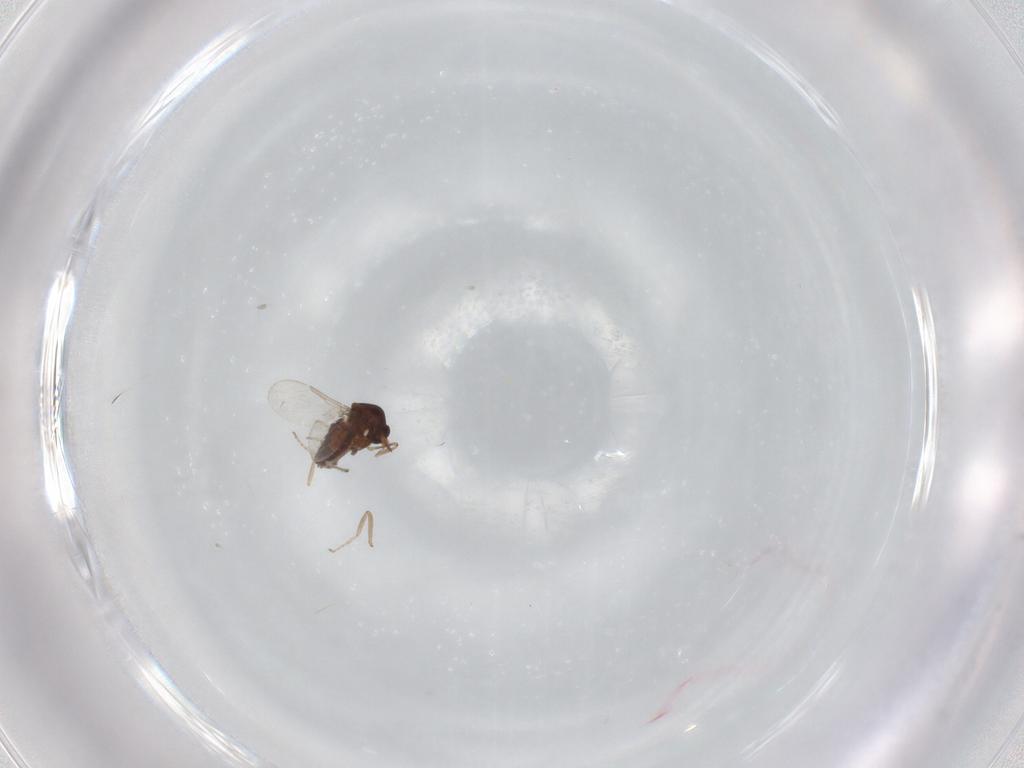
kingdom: Animalia
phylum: Arthropoda
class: Insecta
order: Diptera
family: Ceratopogonidae
